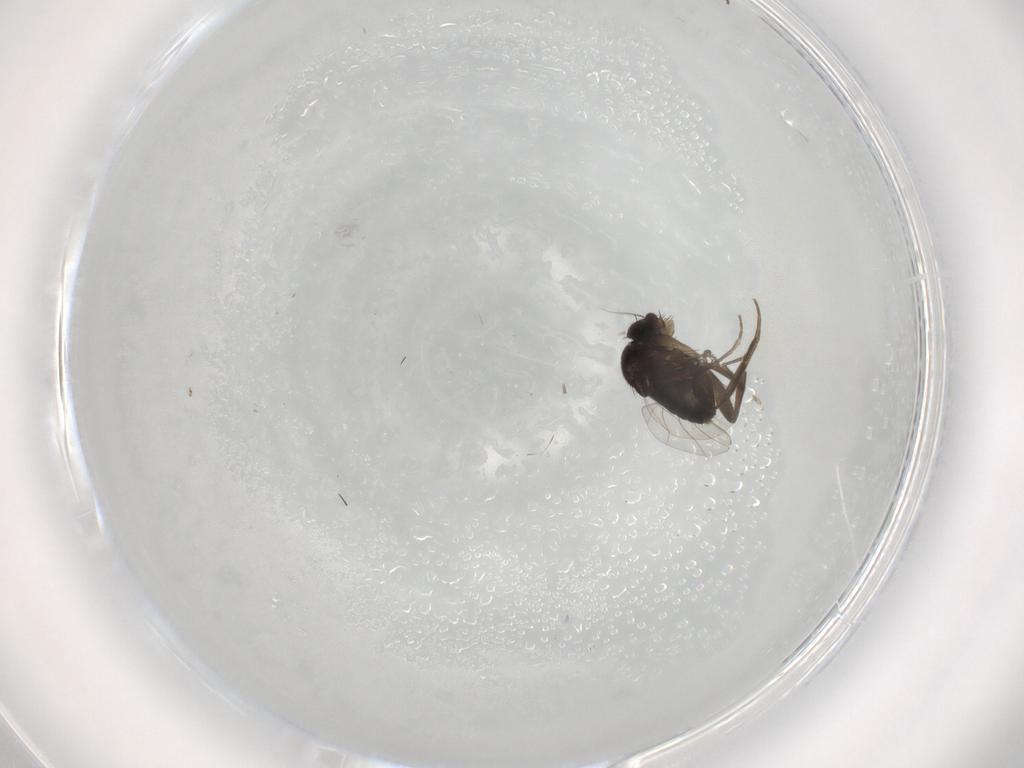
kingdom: Animalia
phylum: Arthropoda
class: Insecta
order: Diptera
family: Phoridae
